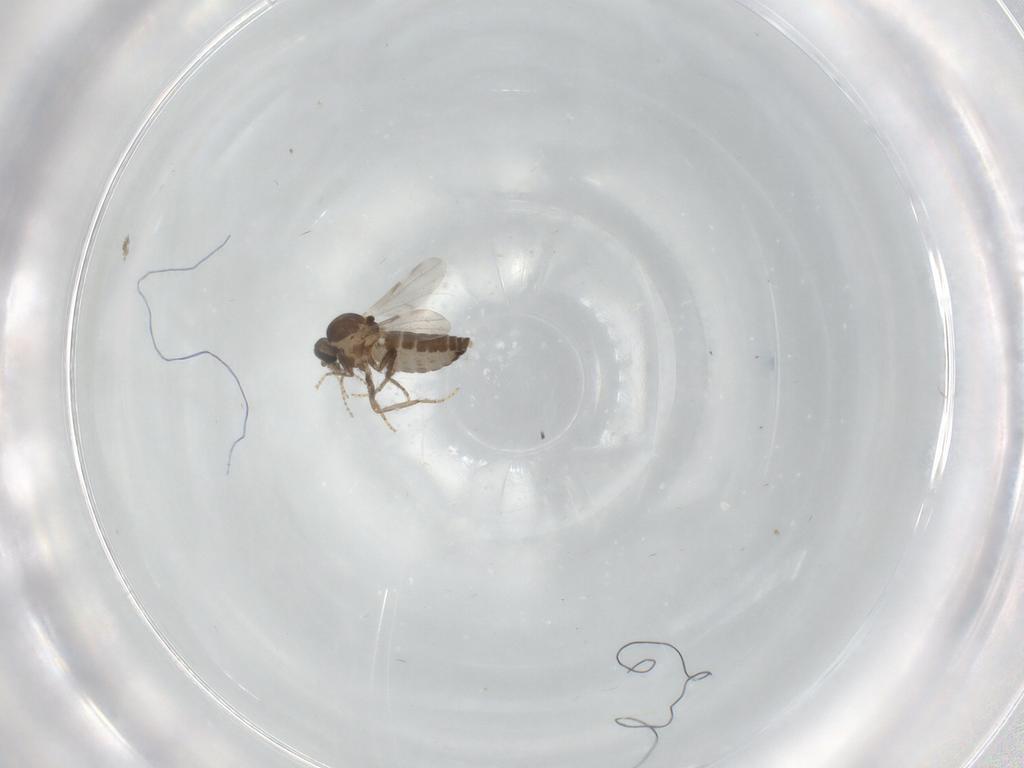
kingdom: Animalia
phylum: Arthropoda
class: Insecta
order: Diptera
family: Ceratopogonidae
